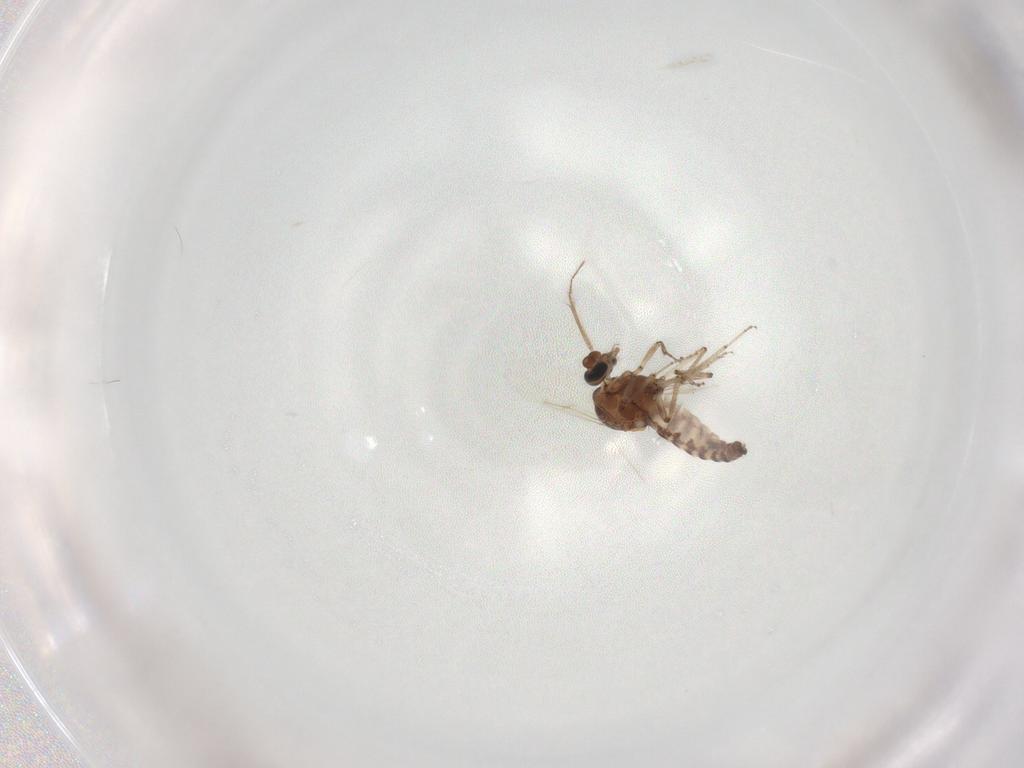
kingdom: Animalia
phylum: Arthropoda
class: Insecta
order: Diptera
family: Ceratopogonidae
